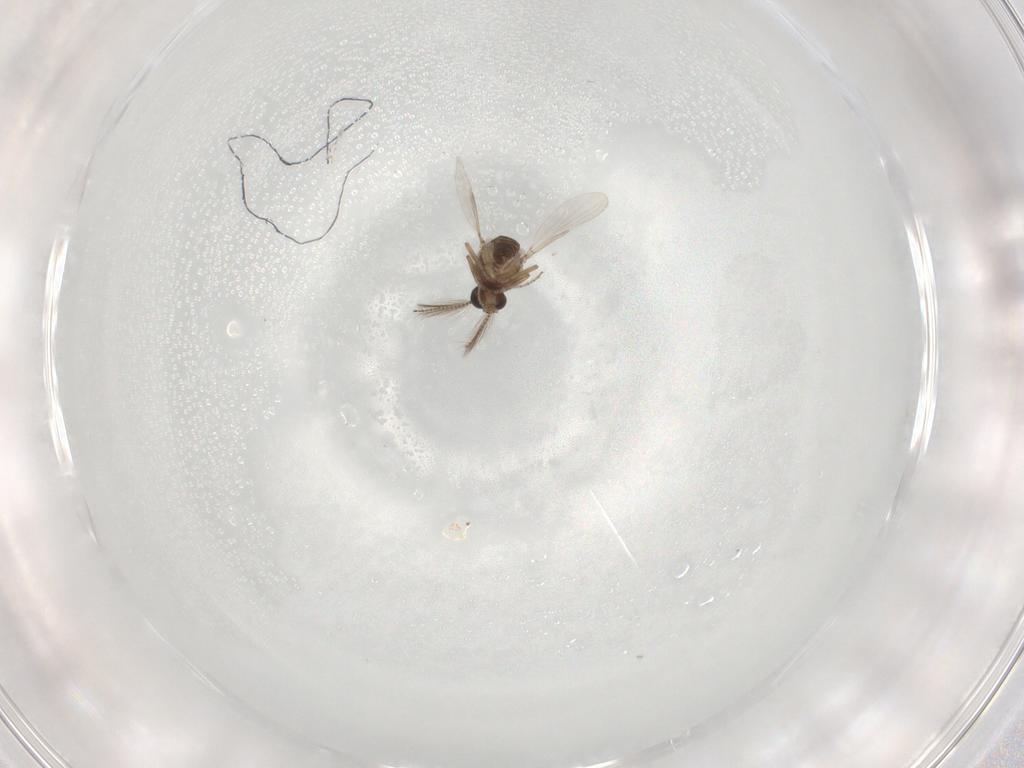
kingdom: Animalia
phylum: Arthropoda
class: Insecta
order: Diptera
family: Ceratopogonidae
